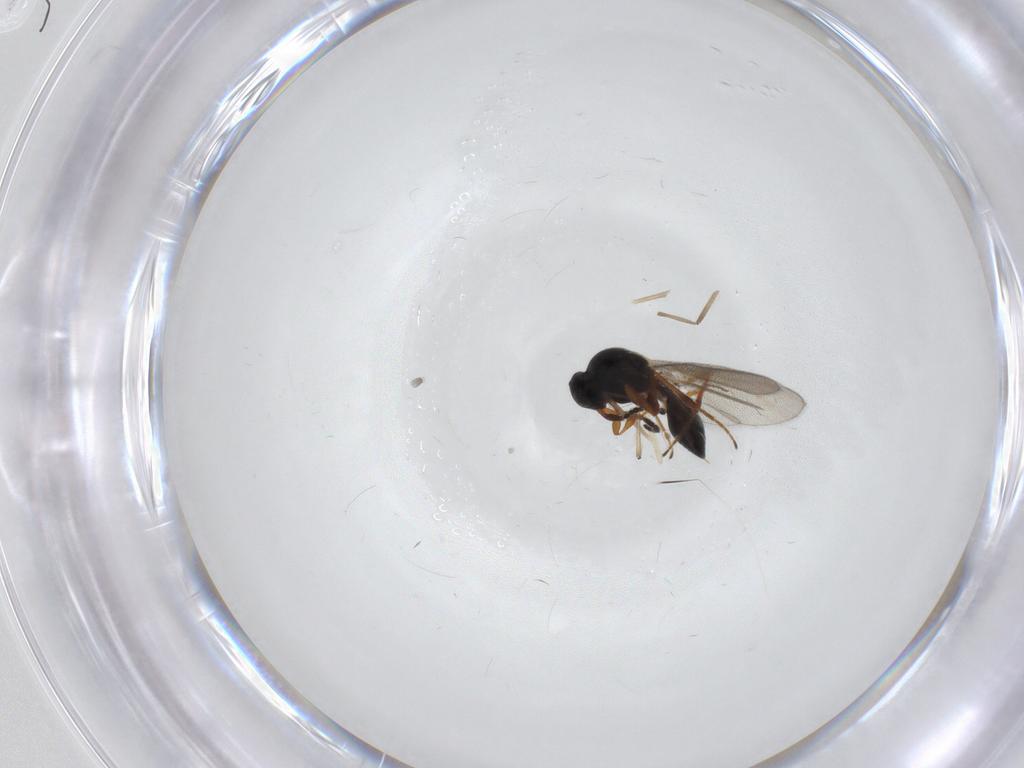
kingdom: Animalia
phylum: Arthropoda
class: Insecta
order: Hymenoptera
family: Platygastridae
